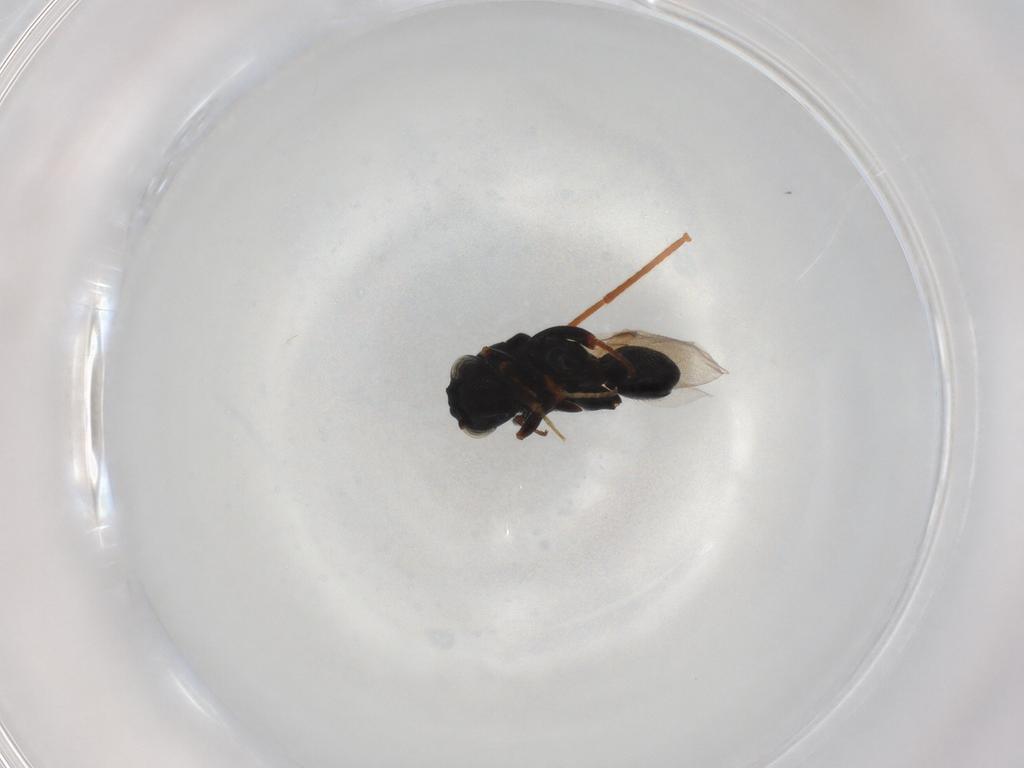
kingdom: Animalia
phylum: Arthropoda
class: Insecta
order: Hymenoptera
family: Chalcididae
